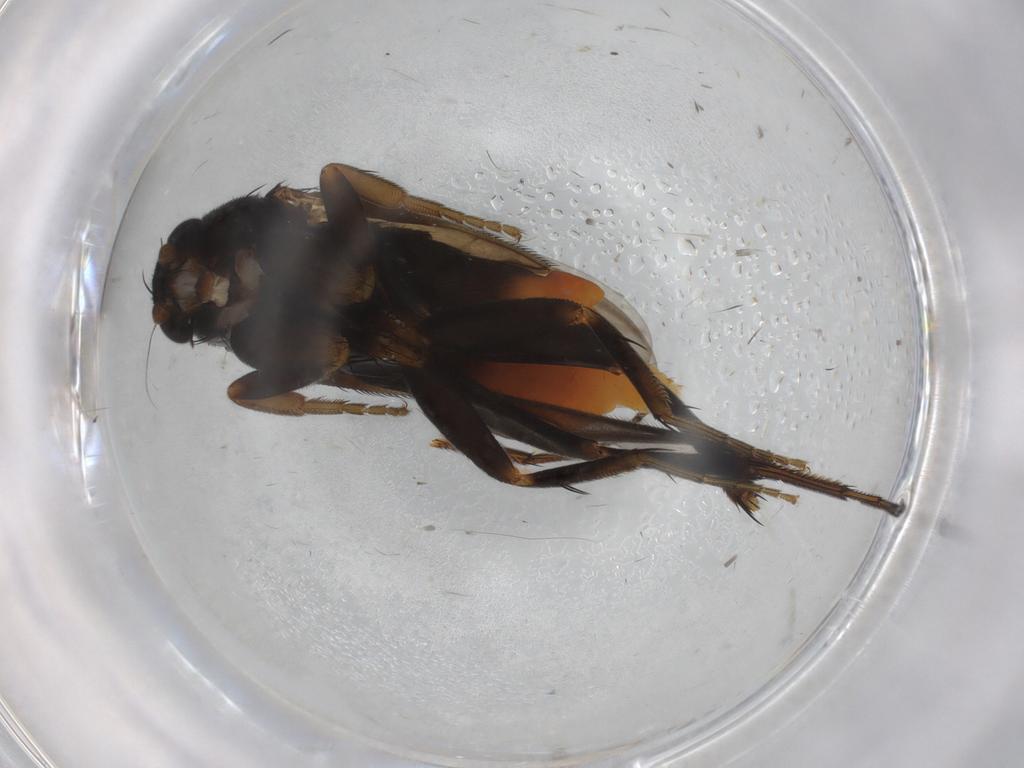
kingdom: Animalia
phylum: Arthropoda
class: Insecta
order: Diptera
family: Sciaridae
